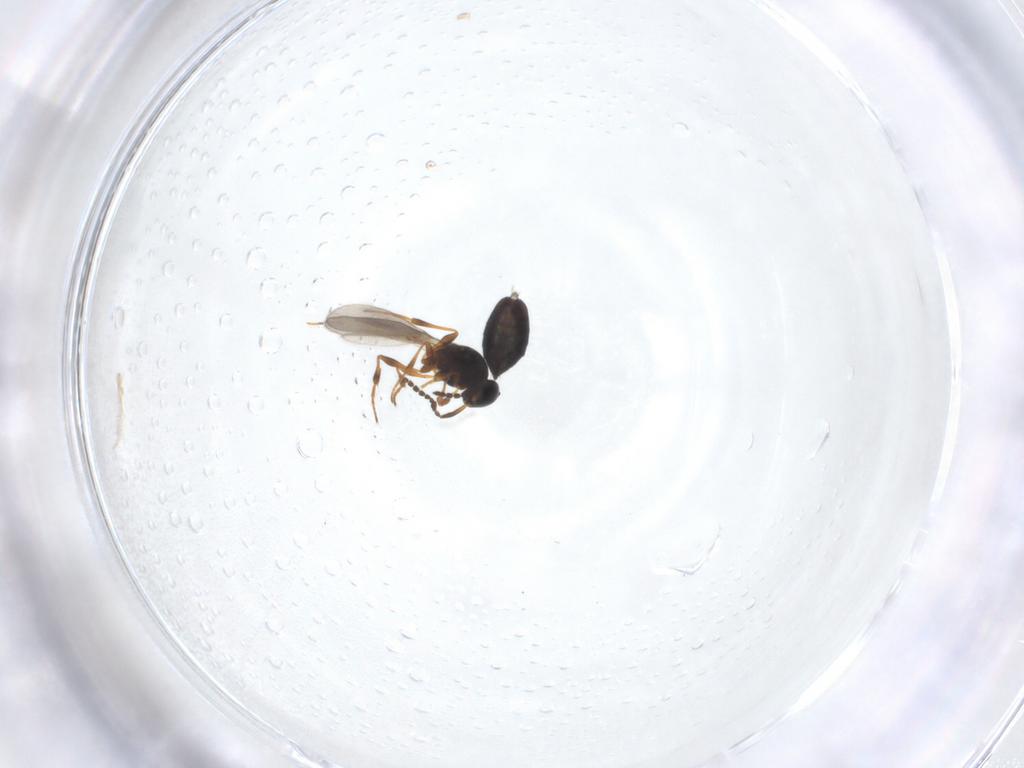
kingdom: Animalia
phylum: Arthropoda
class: Insecta
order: Hymenoptera
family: Platygastridae
